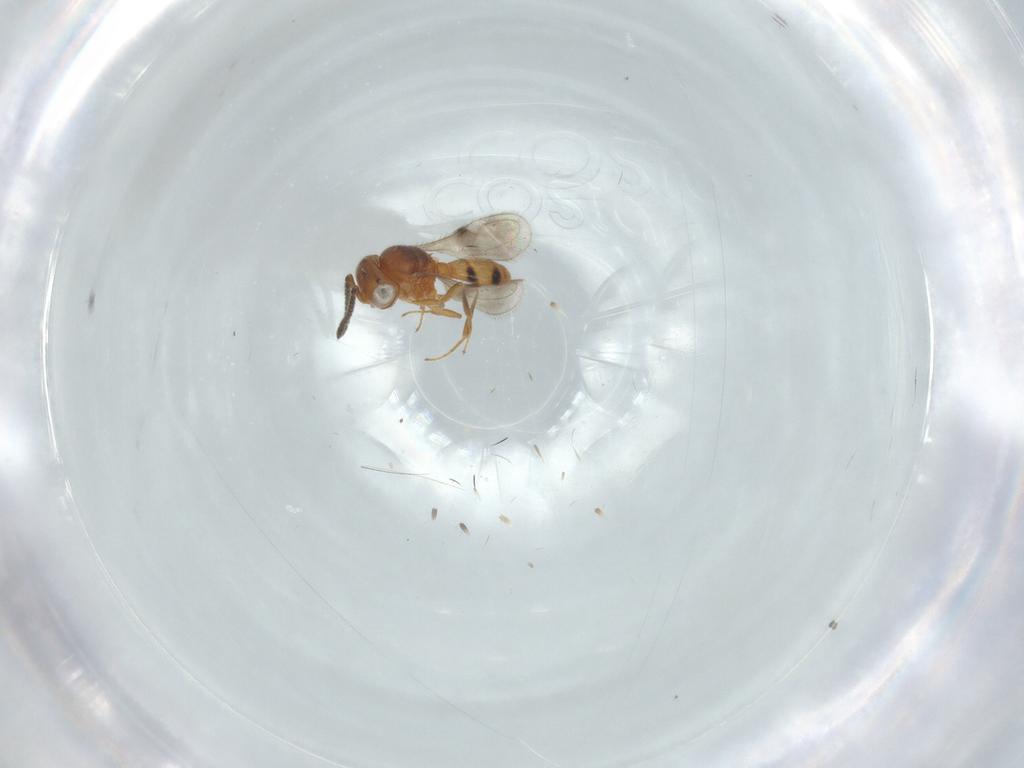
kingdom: Animalia
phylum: Arthropoda
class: Insecta
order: Hymenoptera
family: Scelionidae
